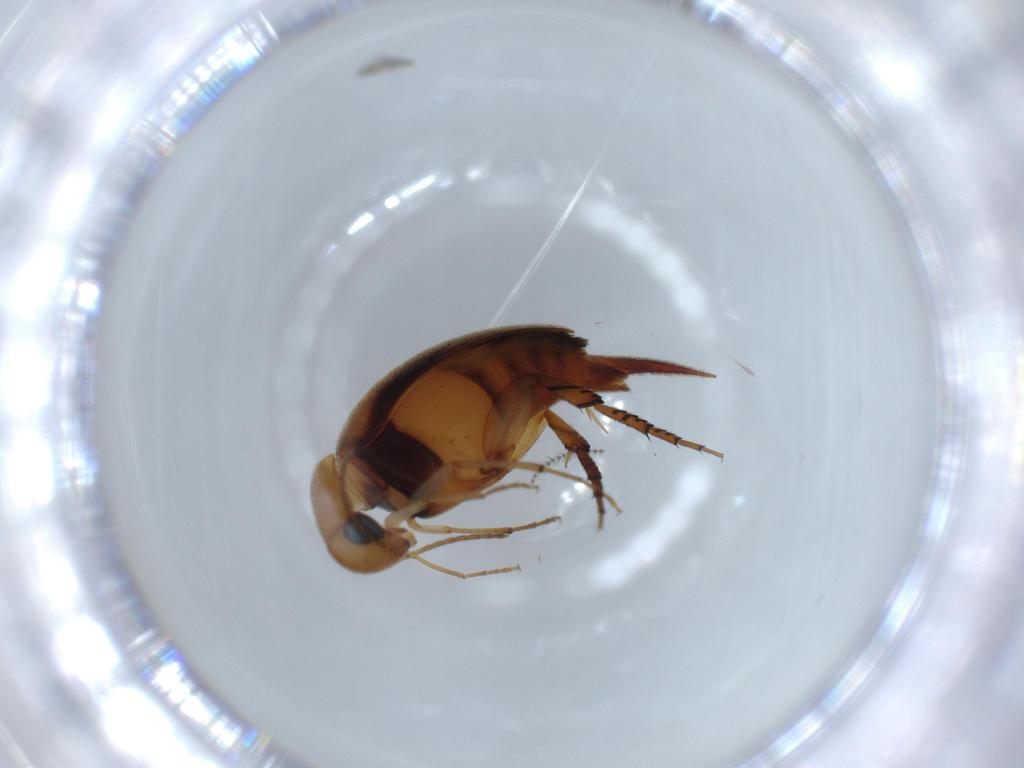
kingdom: Animalia
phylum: Arthropoda
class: Insecta
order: Coleoptera
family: Mordellidae
